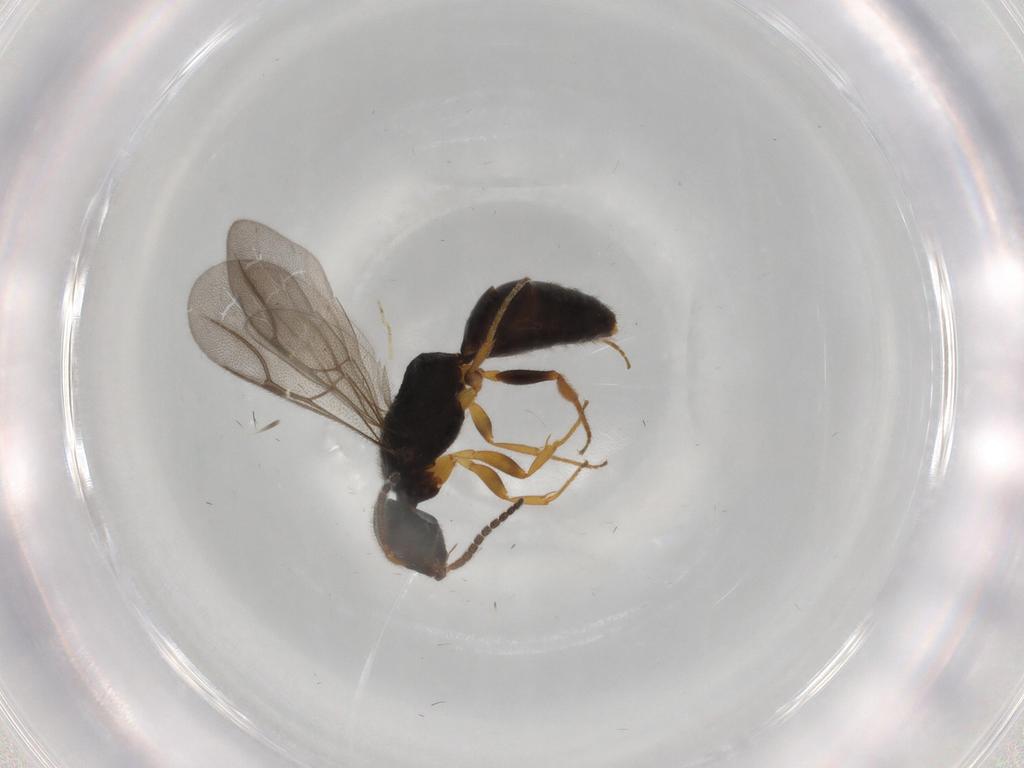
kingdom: Animalia
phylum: Arthropoda
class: Insecta
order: Hymenoptera
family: Bethylidae
